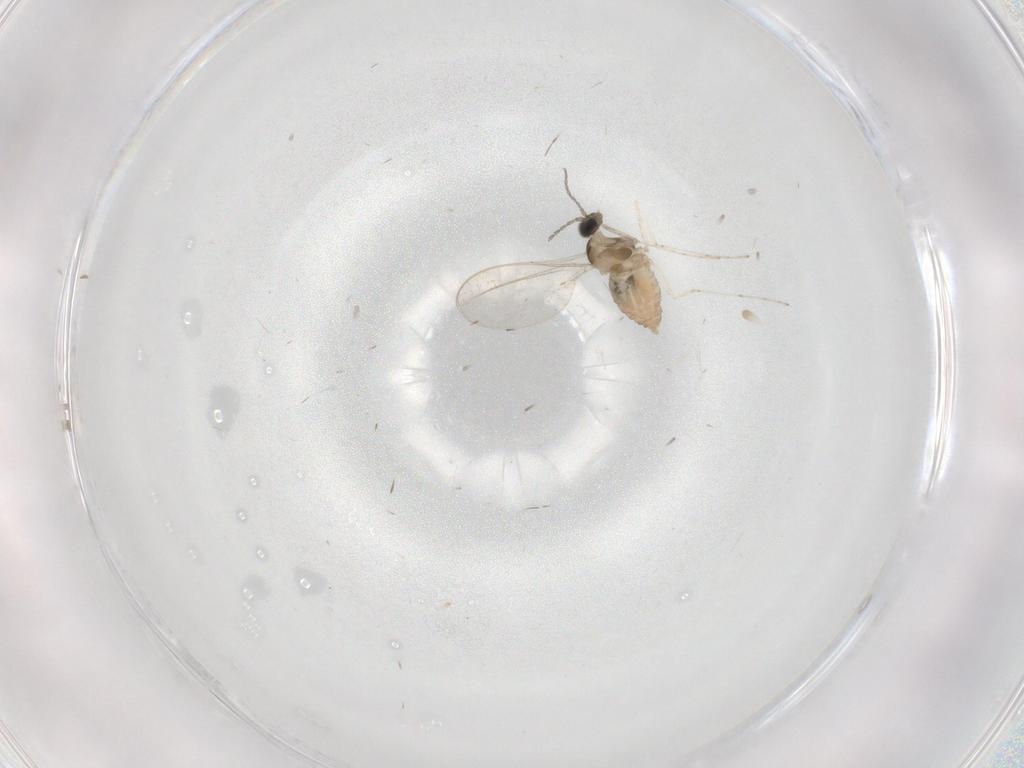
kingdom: Animalia
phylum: Arthropoda
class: Insecta
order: Diptera
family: Cecidomyiidae
